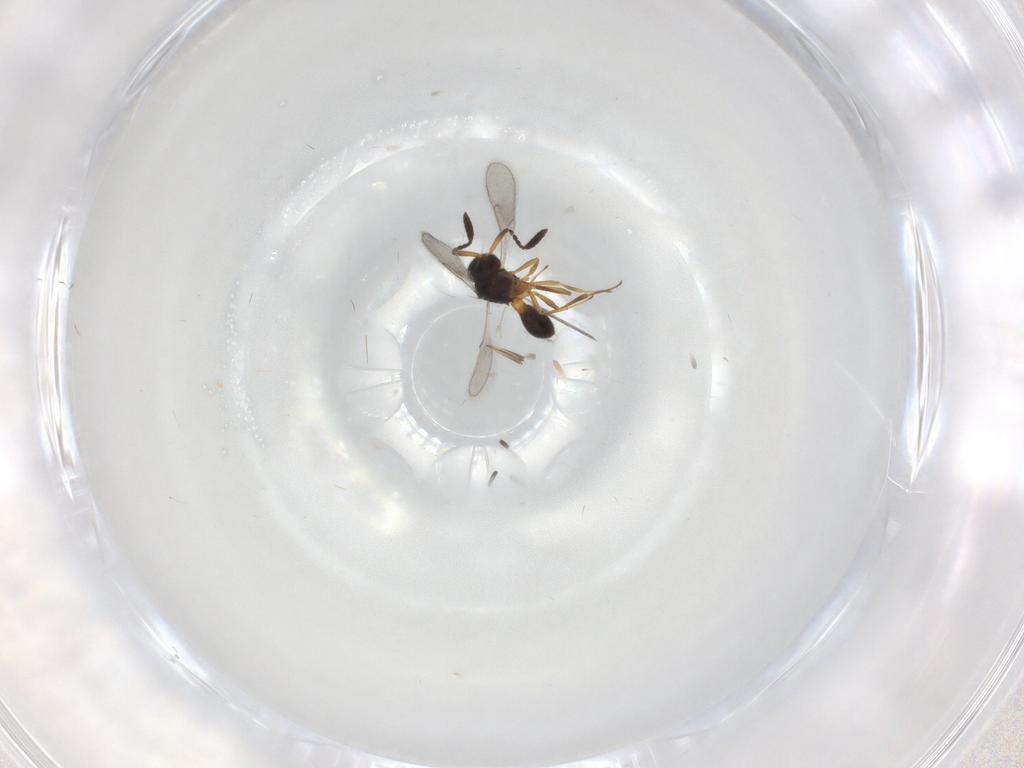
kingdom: Animalia
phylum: Arthropoda
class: Insecta
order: Hymenoptera
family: Scelionidae
